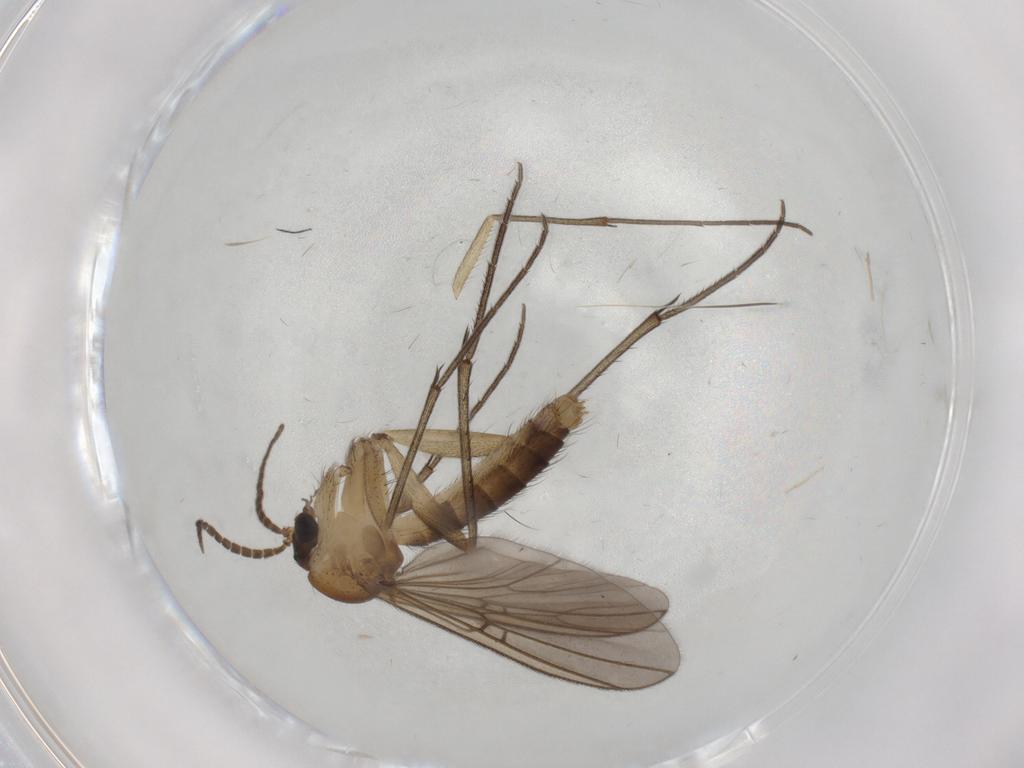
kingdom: Animalia
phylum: Arthropoda
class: Insecta
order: Diptera
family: Mycetophilidae
